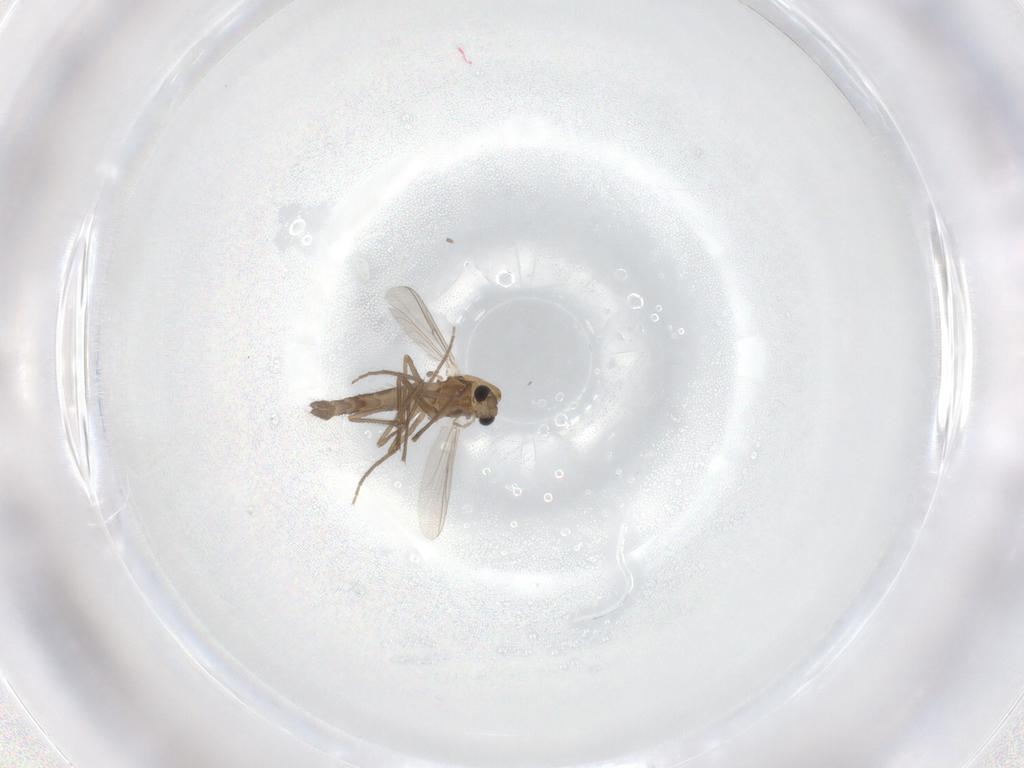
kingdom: Animalia
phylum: Arthropoda
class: Insecta
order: Diptera
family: Chironomidae
